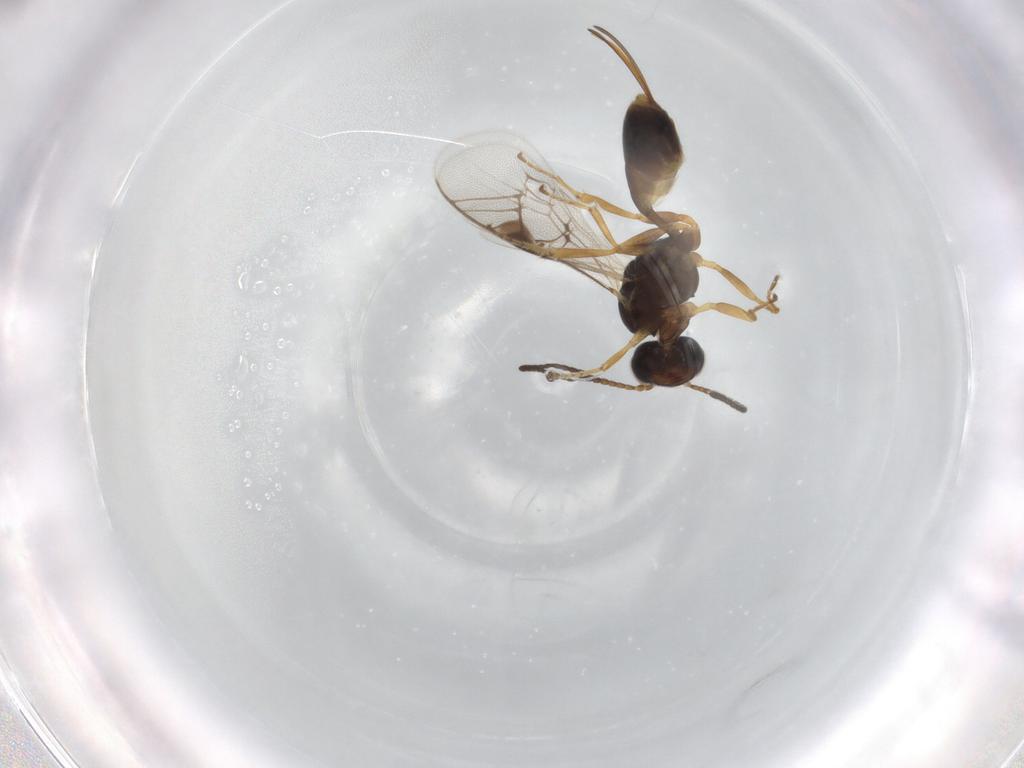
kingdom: Animalia
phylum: Arthropoda
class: Insecta
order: Hymenoptera
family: Ichneumonidae
